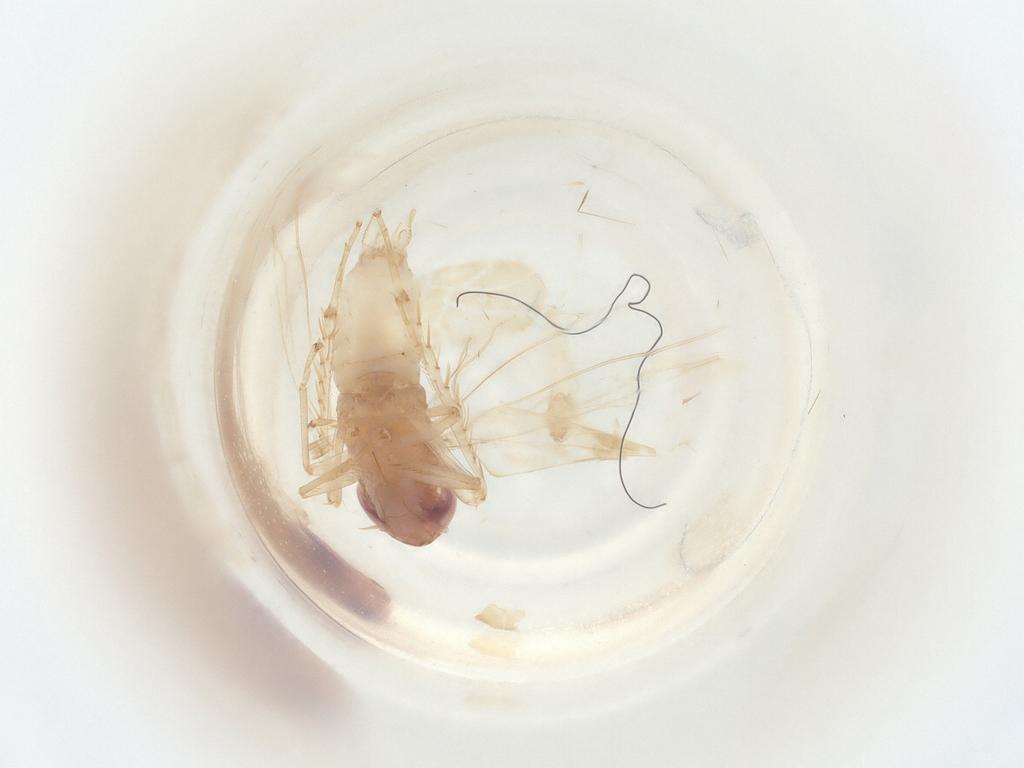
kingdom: Animalia
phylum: Arthropoda
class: Insecta
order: Diptera
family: Cecidomyiidae
